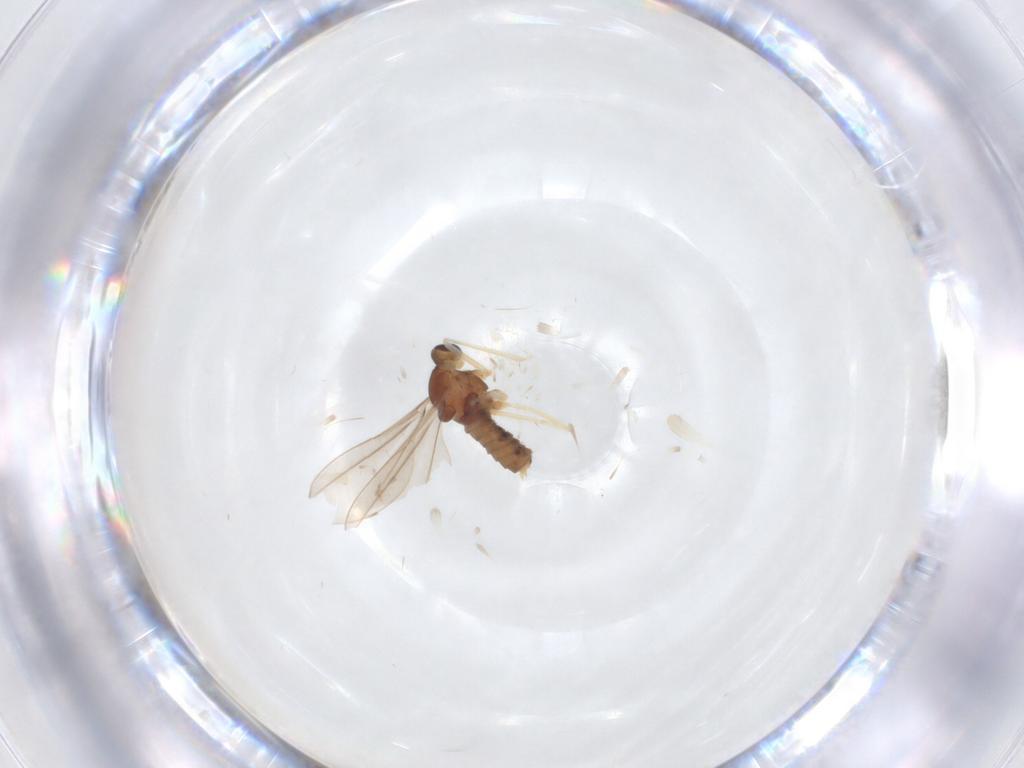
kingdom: Animalia
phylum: Arthropoda
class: Insecta
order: Diptera
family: Cecidomyiidae
